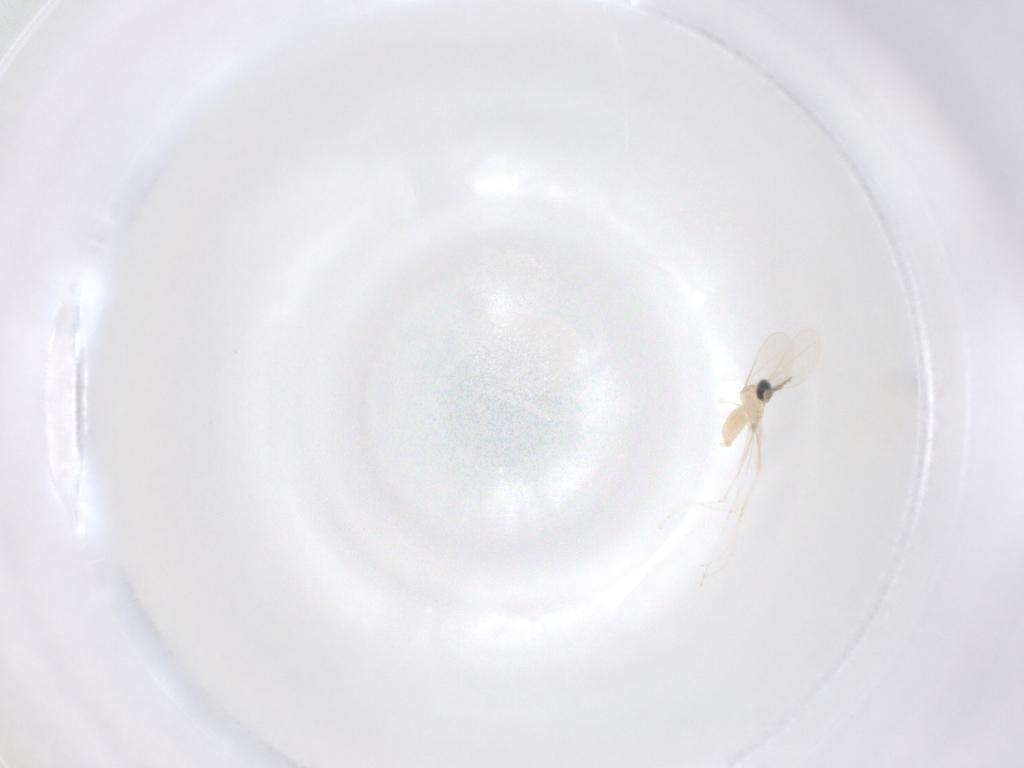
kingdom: Animalia
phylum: Arthropoda
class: Insecta
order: Diptera
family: Cecidomyiidae
